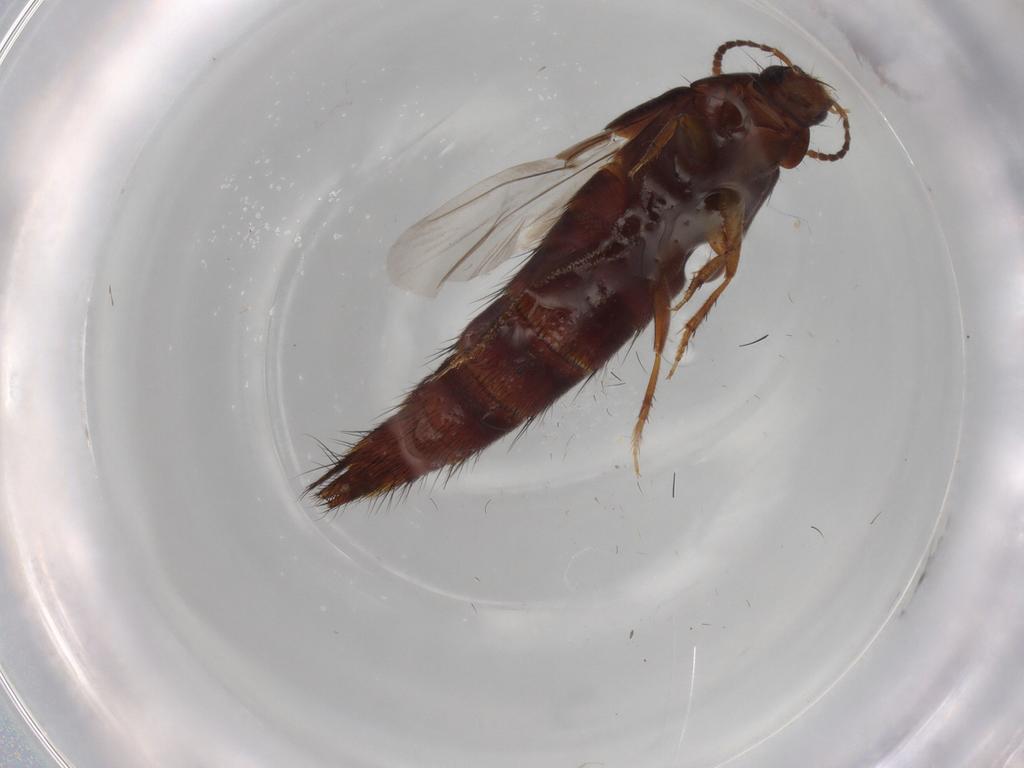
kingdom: Animalia
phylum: Arthropoda
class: Insecta
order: Coleoptera
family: Staphylinidae
